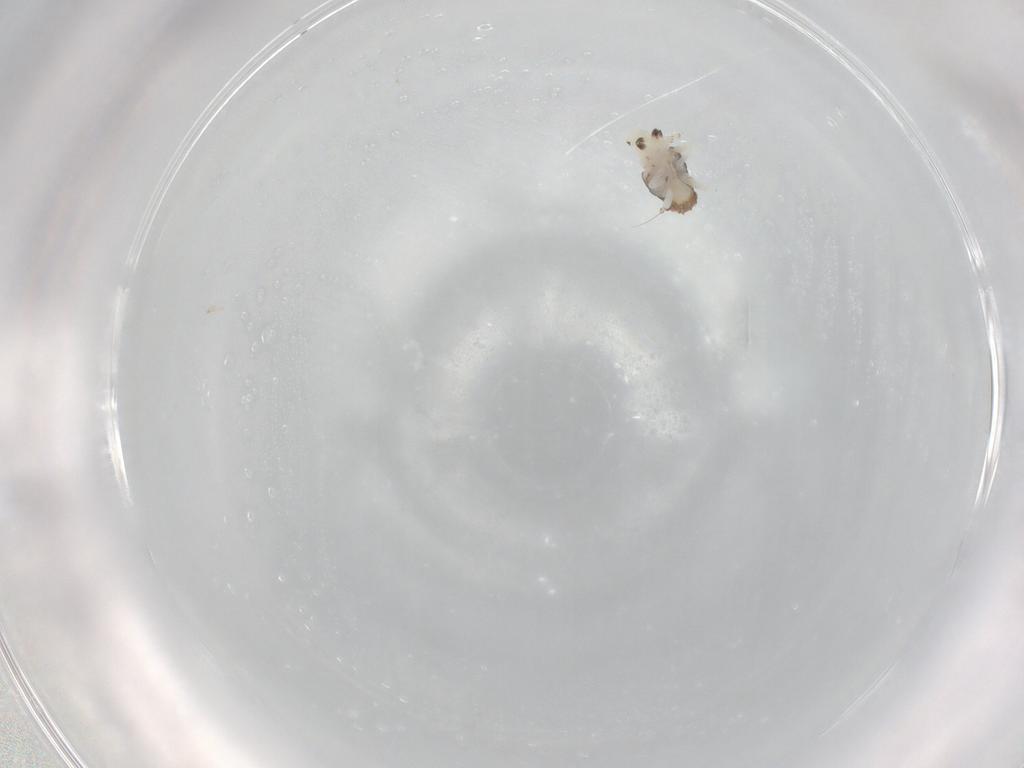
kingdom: Animalia
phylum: Arthropoda
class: Insecta
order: Hemiptera
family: Nogodinidae
